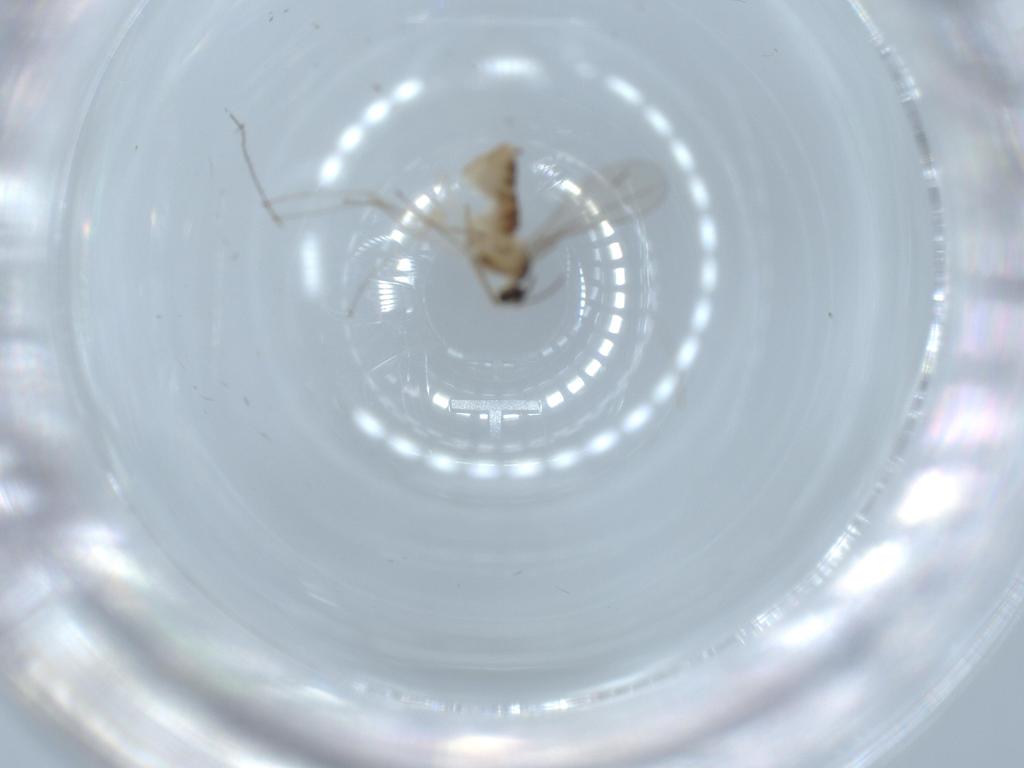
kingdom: Animalia
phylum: Arthropoda
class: Insecta
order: Diptera
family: Cecidomyiidae
